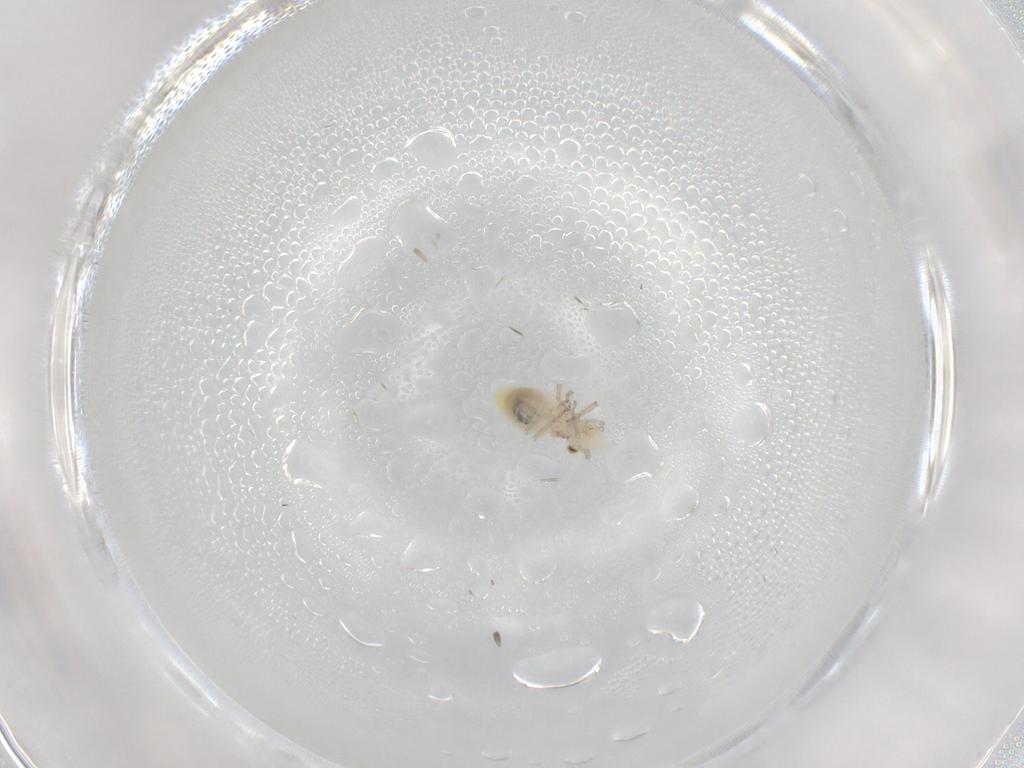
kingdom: Animalia
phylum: Arthropoda
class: Insecta
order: Psocodea
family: Caeciliusidae
